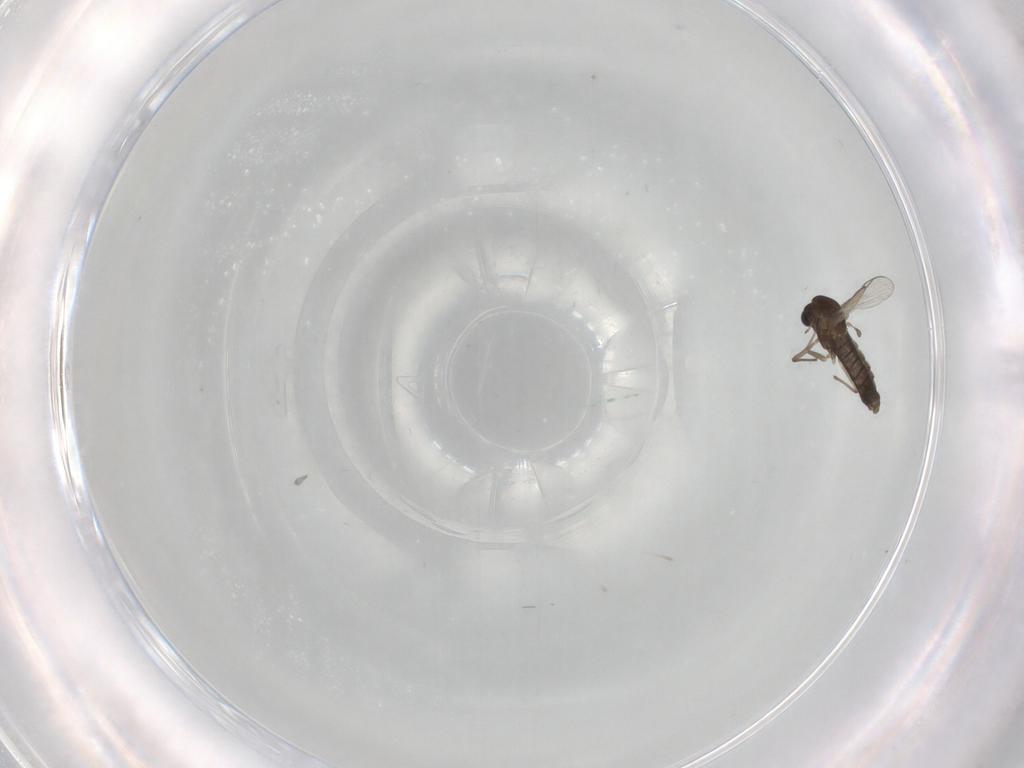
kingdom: Animalia
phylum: Arthropoda
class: Insecta
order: Diptera
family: Chironomidae
